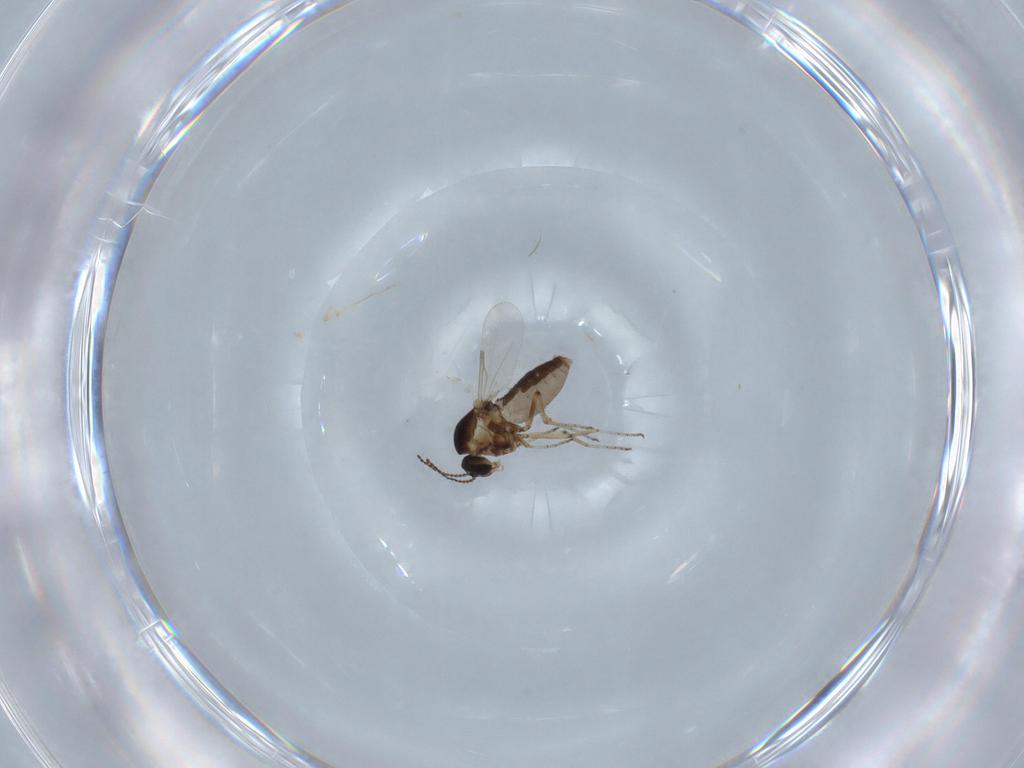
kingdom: Animalia
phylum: Arthropoda
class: Insecta
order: Diptera
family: Ceratopogonidae
